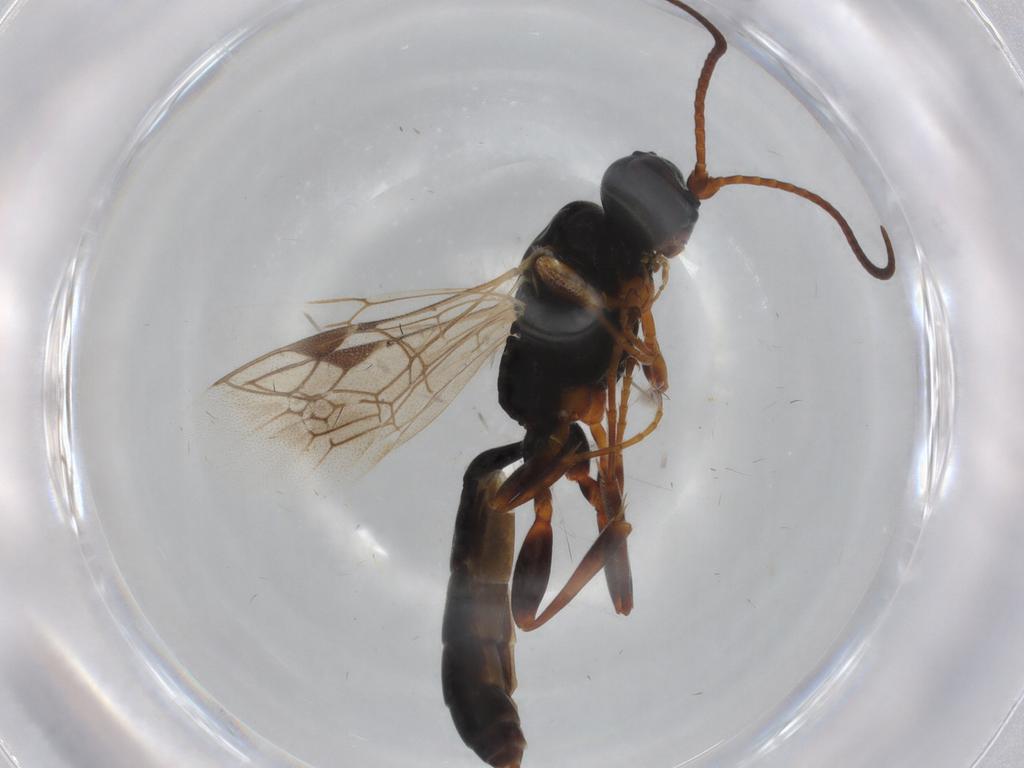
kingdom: Animalia
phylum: Arthropoda
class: Insecta
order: Hymenoptera
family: Ichneumonidae
